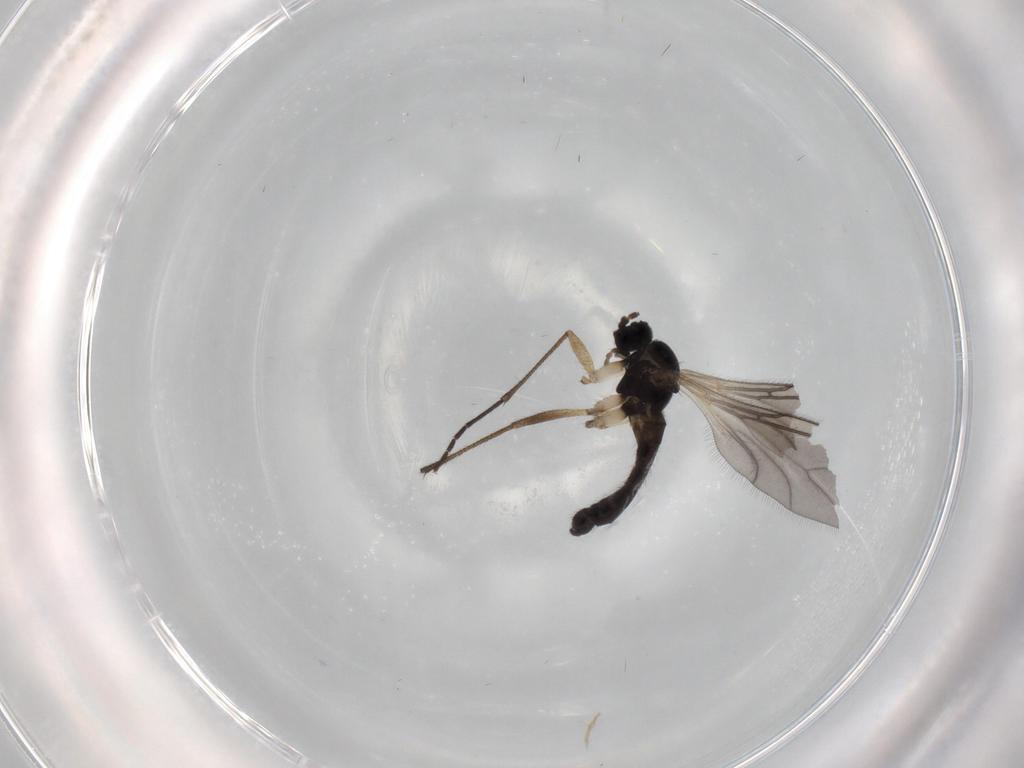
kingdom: Animalia
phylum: Arthropoda
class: Insecta
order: Diptera
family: Sciaridae
